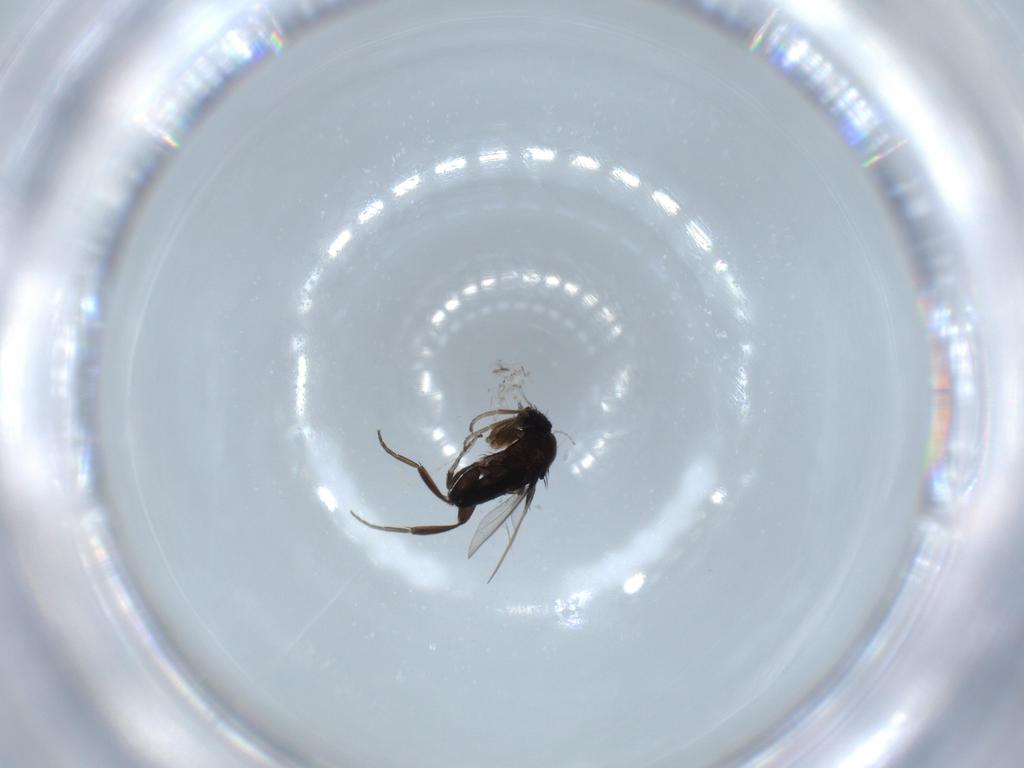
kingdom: Animalia
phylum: Arthropoda
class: Insecta
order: Diptera
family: Phoridae
